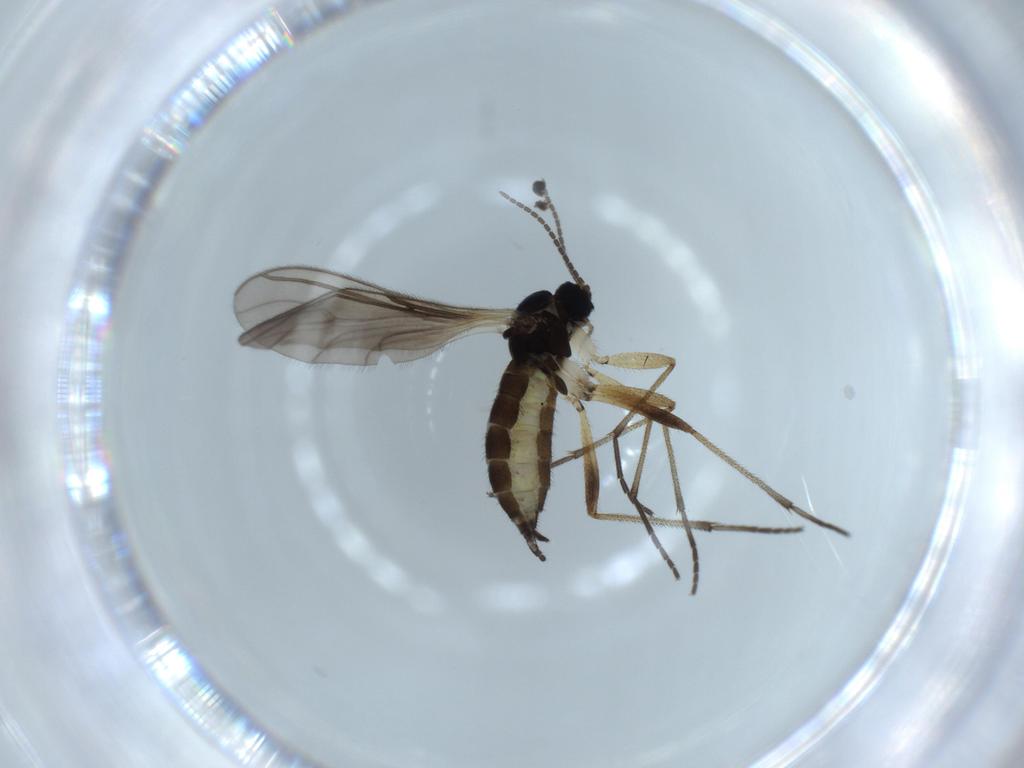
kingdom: Animalia
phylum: Arthropoda
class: Insecta
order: Diptera
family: Sciaridae
